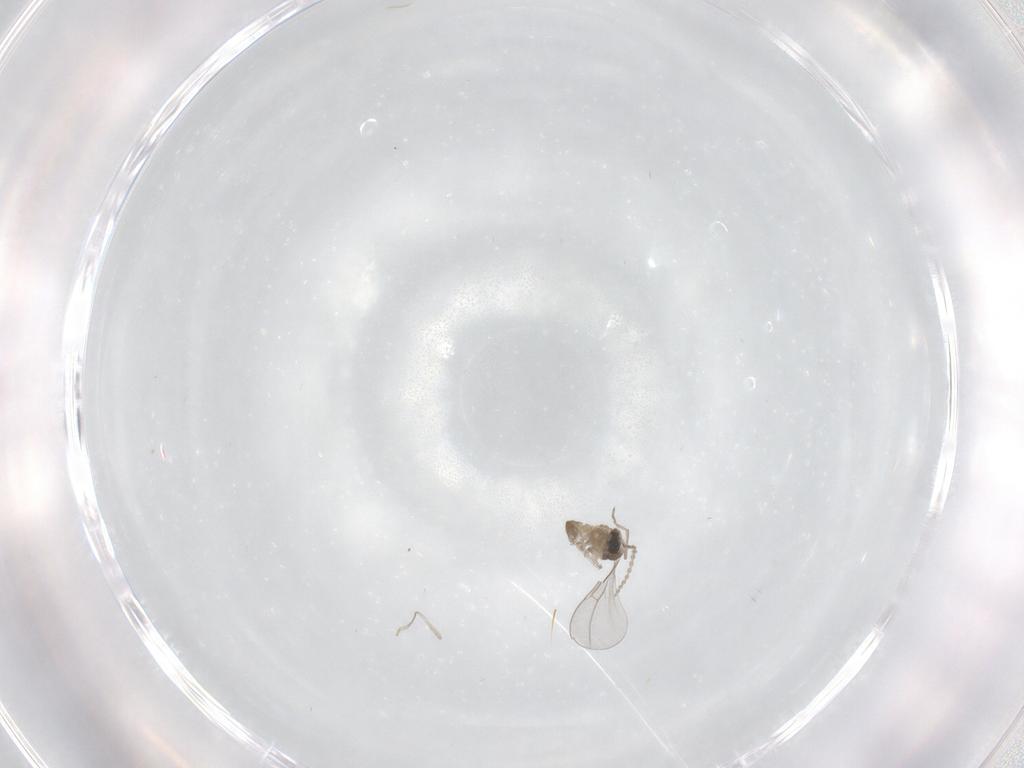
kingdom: Animalia
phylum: Arthropoda
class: Insecta
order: Diptera
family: Cecidomyiidae
